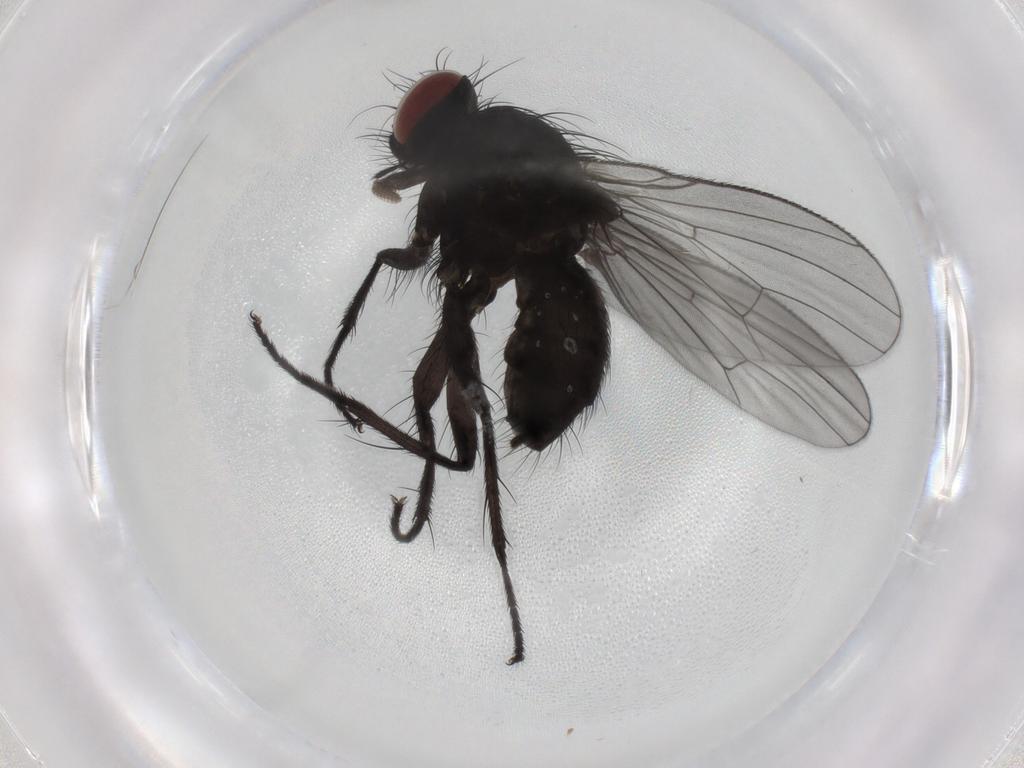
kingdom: Animalia
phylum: Arthropoda
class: Insecta
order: Diptera
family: Muscidae
